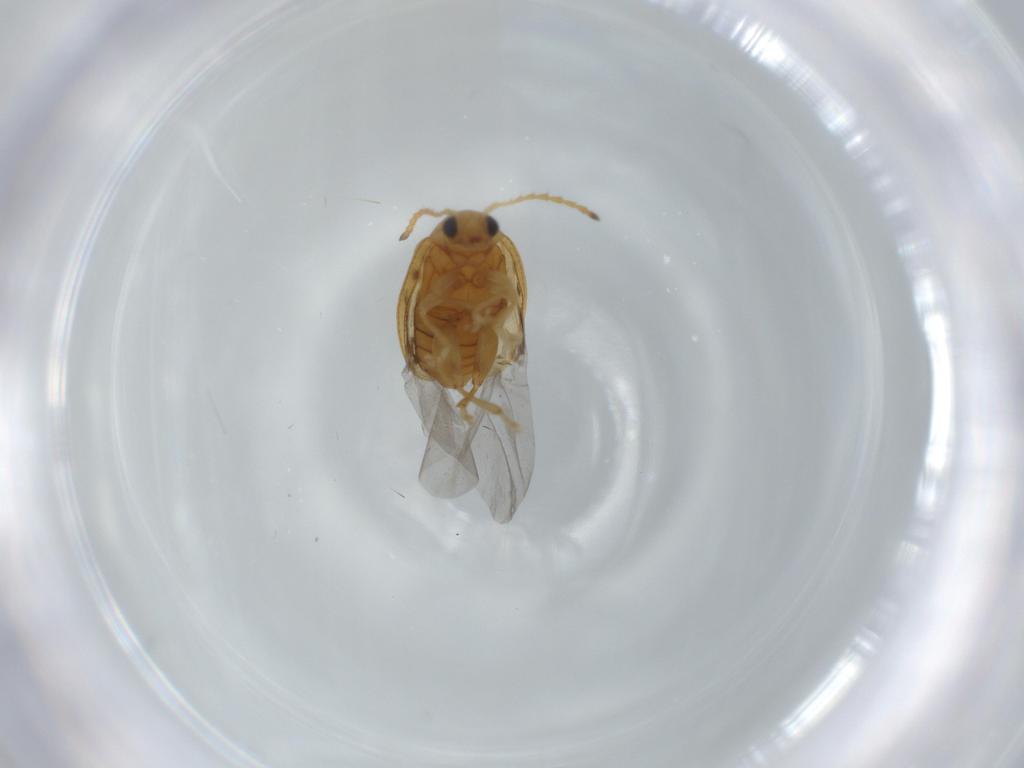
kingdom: Animalia
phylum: Arthropoda
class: Insecta
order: Coleoptera
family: Chrysomelidae
